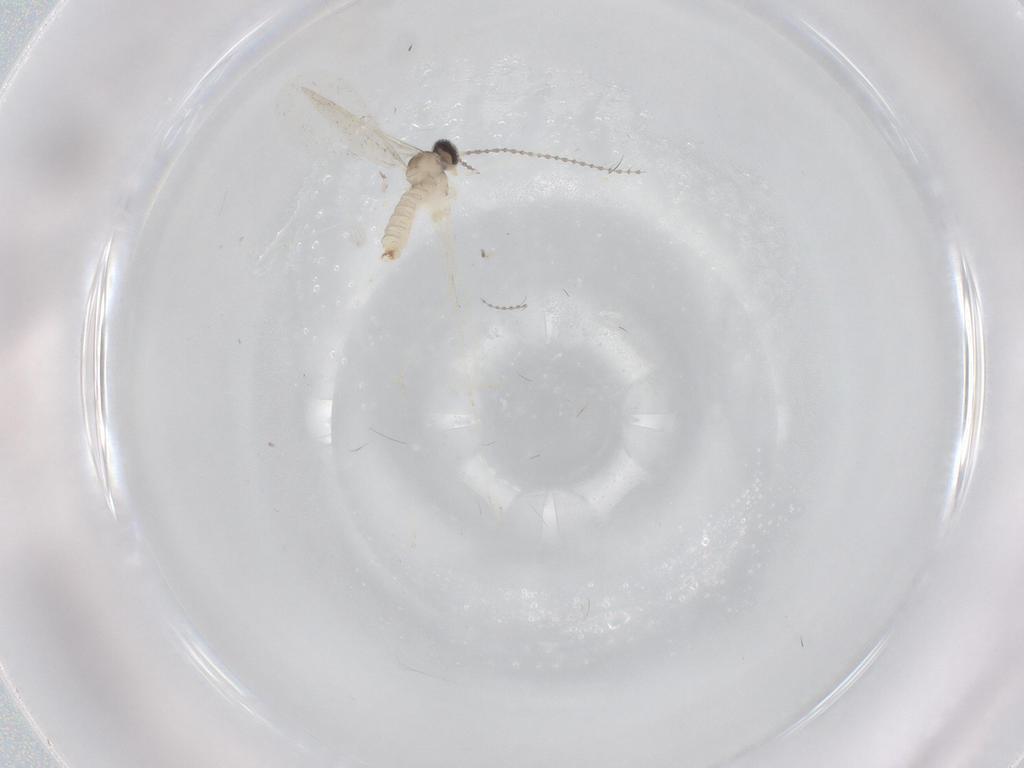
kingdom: Animalia
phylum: Arthropoda
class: Insecta
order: Diptera
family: Cecidomyiidae
